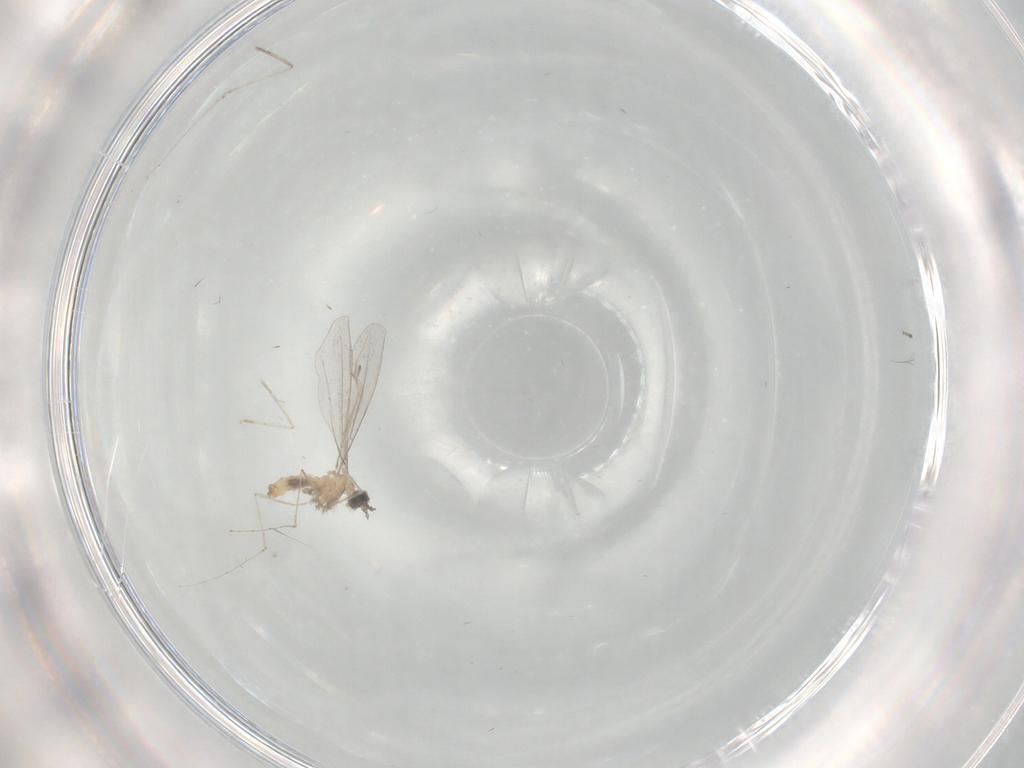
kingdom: Animalia
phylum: Arthropoda
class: Insecta
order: Diptera
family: Cecidomyiidae
